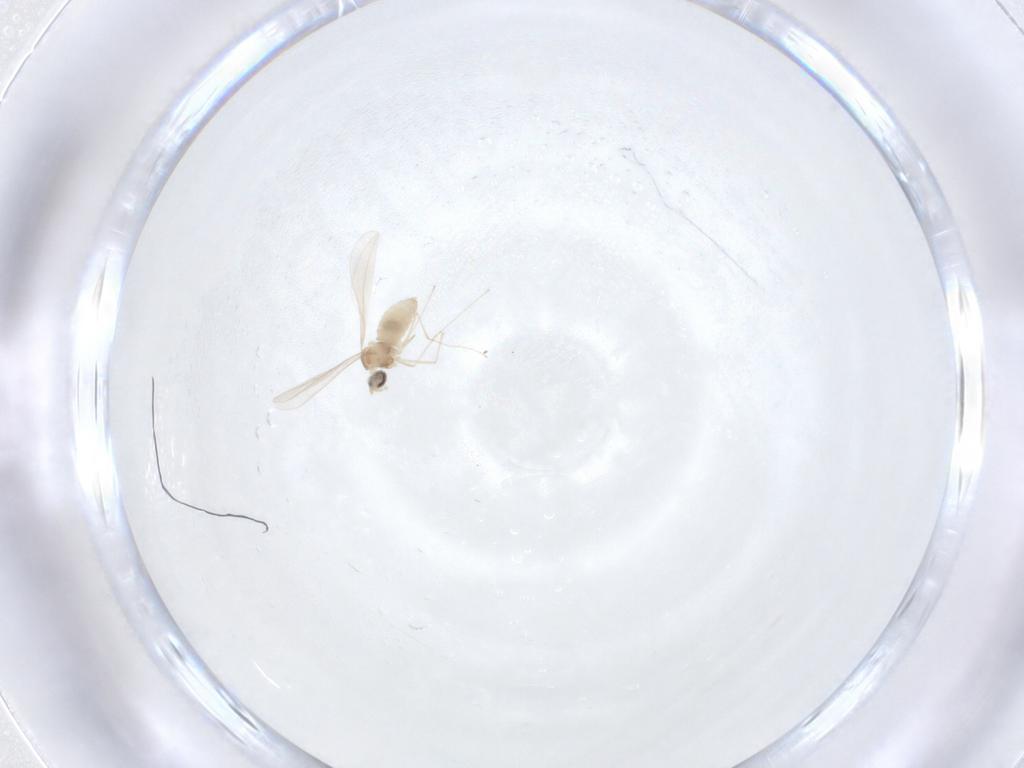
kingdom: Animalia
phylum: Arthropoda
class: Insecta
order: Diptera
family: Cecidomyiidae
